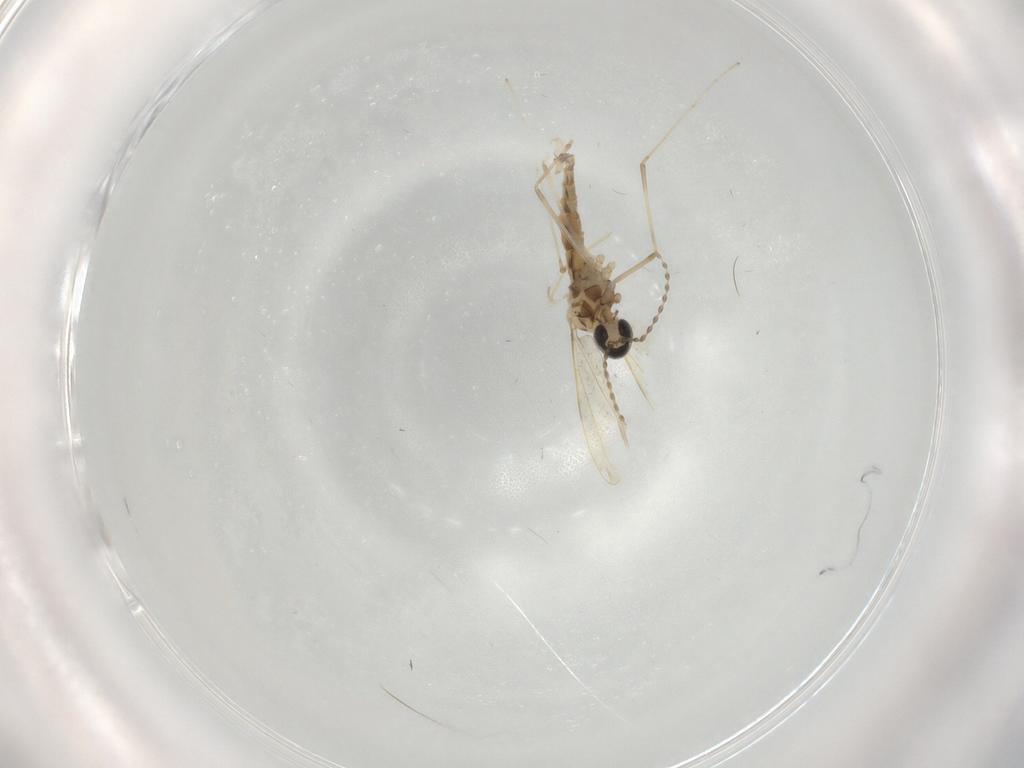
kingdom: Animalia
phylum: Arthropoda
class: Insecta
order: Diptera
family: Cecidomyiidae
